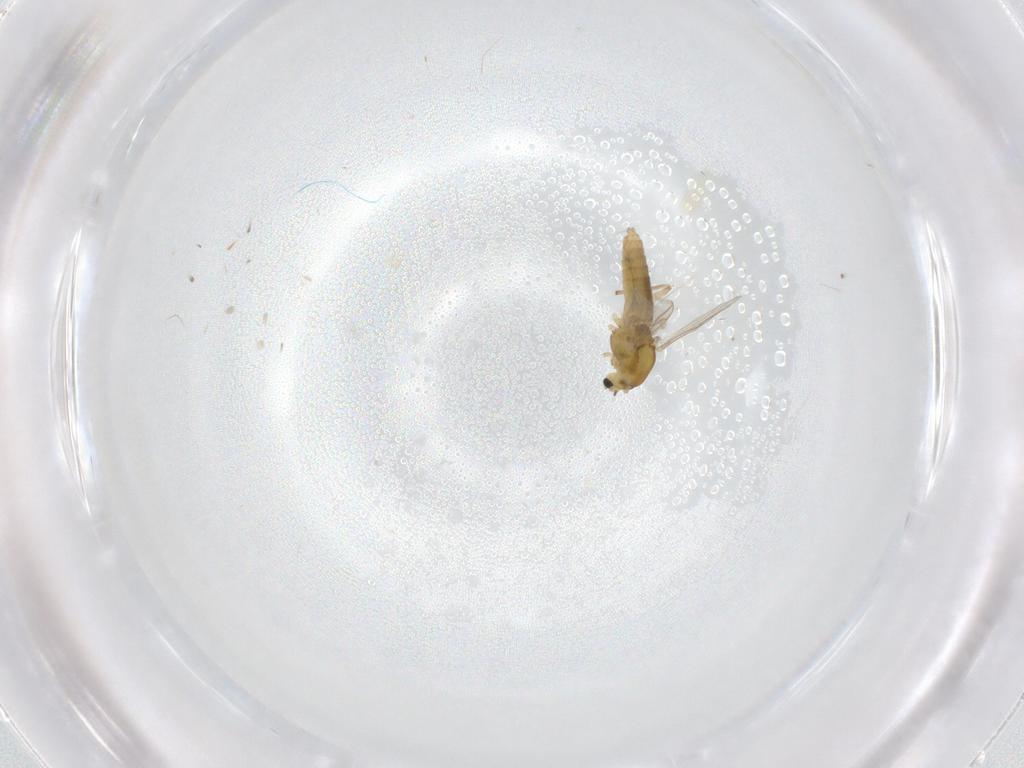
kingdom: Animalia
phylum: Arthropoda
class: Insecta
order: Diptera
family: Chironomidae
